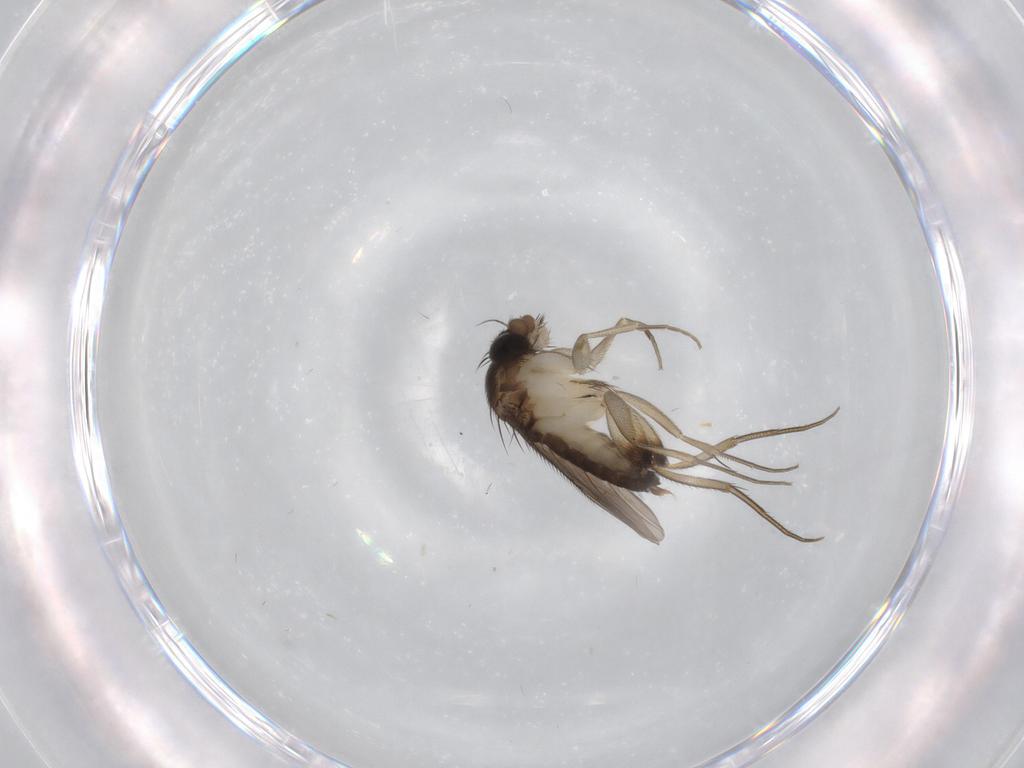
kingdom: Animalia
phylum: Arthropoda
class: Insecta
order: Diptera
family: Phoridae
